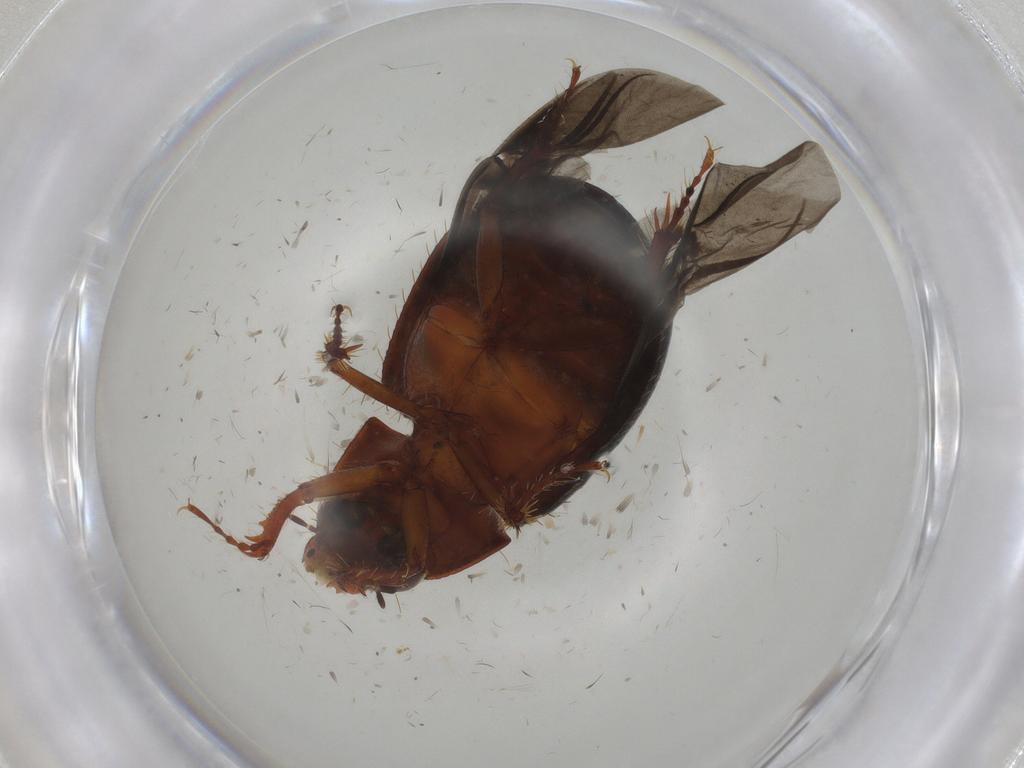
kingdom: Animalia
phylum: Arthropoda
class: Insecta
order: Coleoptera
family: Hybosoridae
